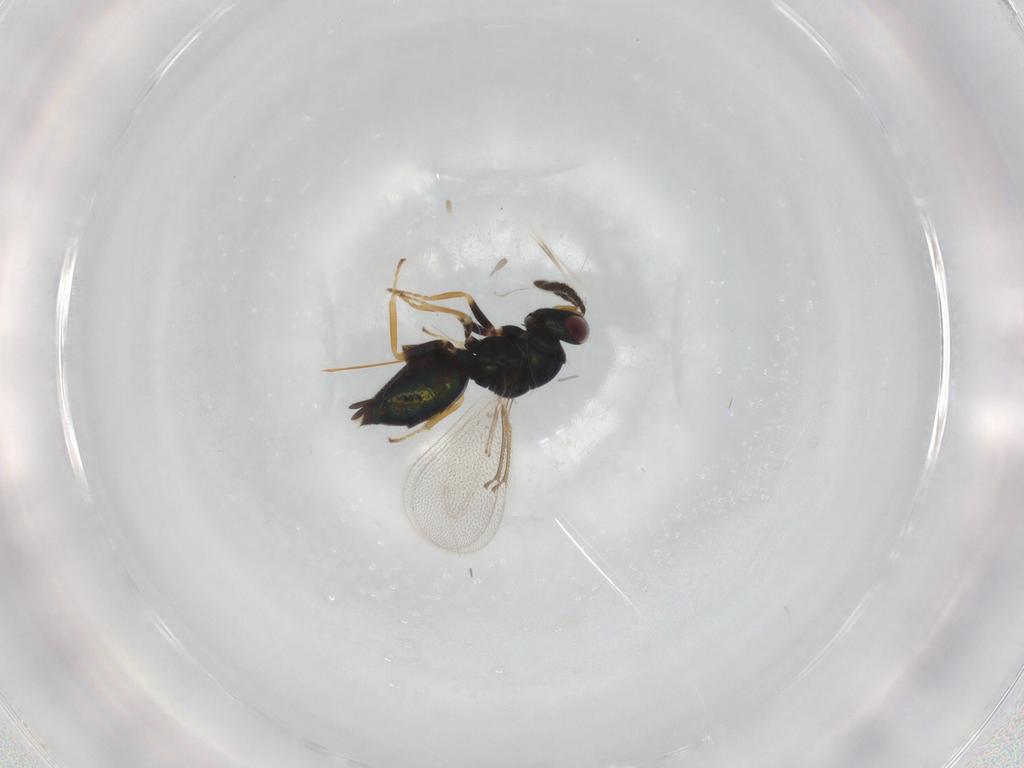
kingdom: Animalia
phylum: Arthropoda
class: Insecta
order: Hymenoptera
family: Eulophidae
